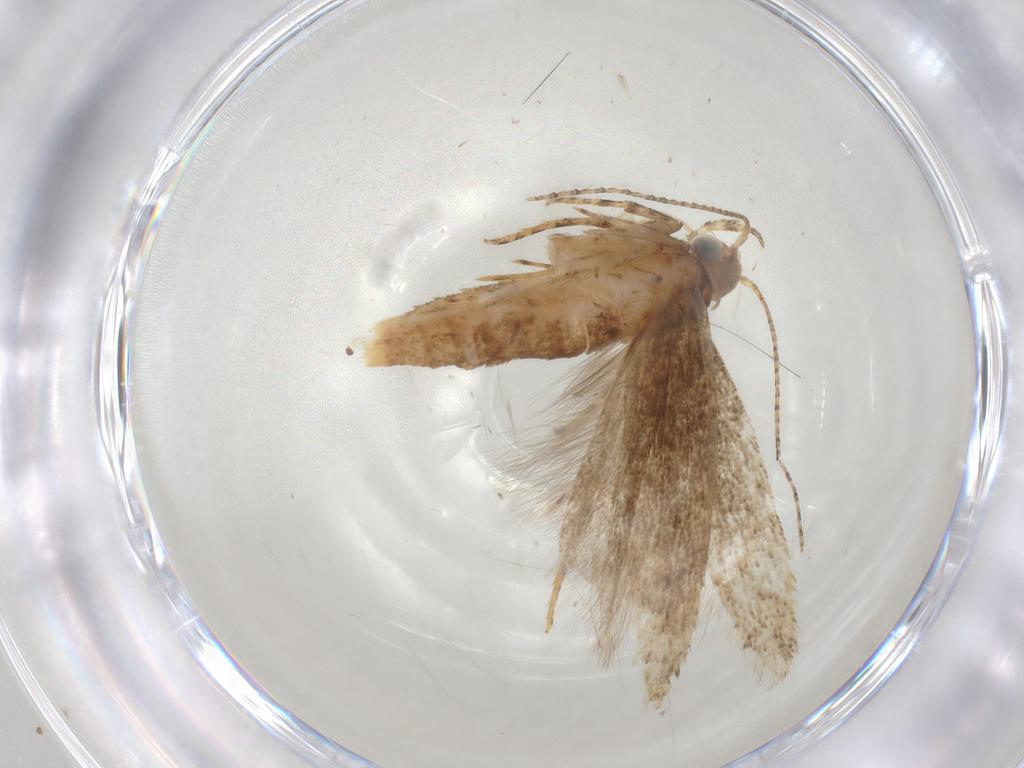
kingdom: Animalia
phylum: Arthropoda
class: Insecta
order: Lepidoptera
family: Gelechiidae
